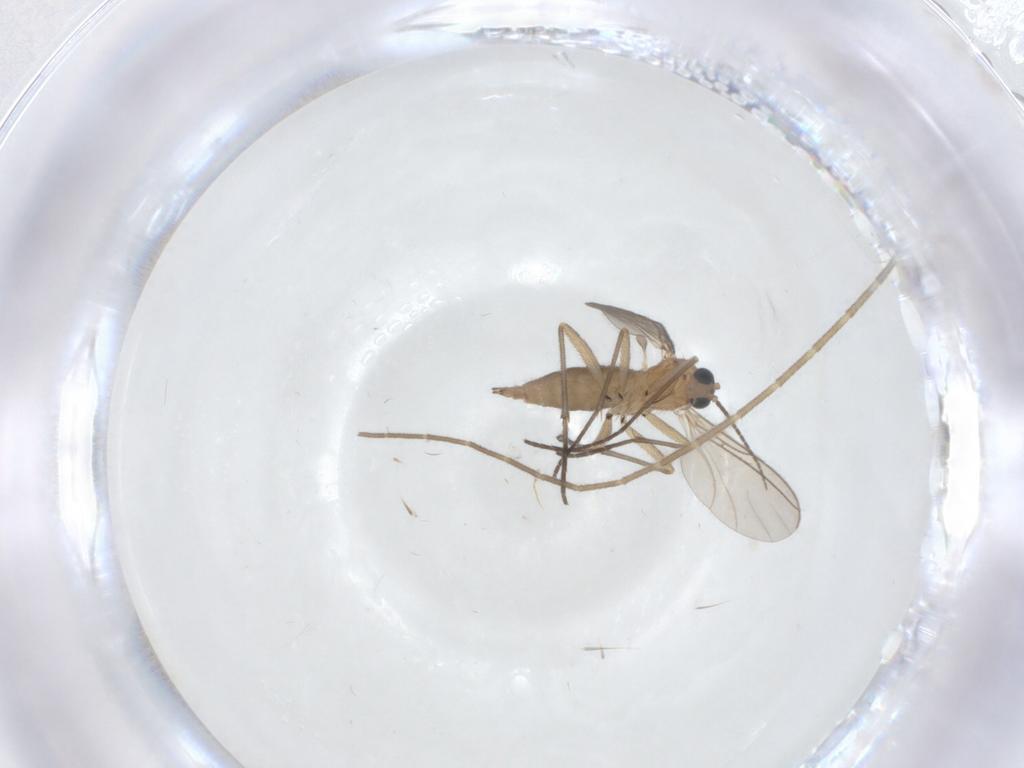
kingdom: Animalia
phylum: Arthropoda
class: Insecta
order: Diptera
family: Sciaridae
